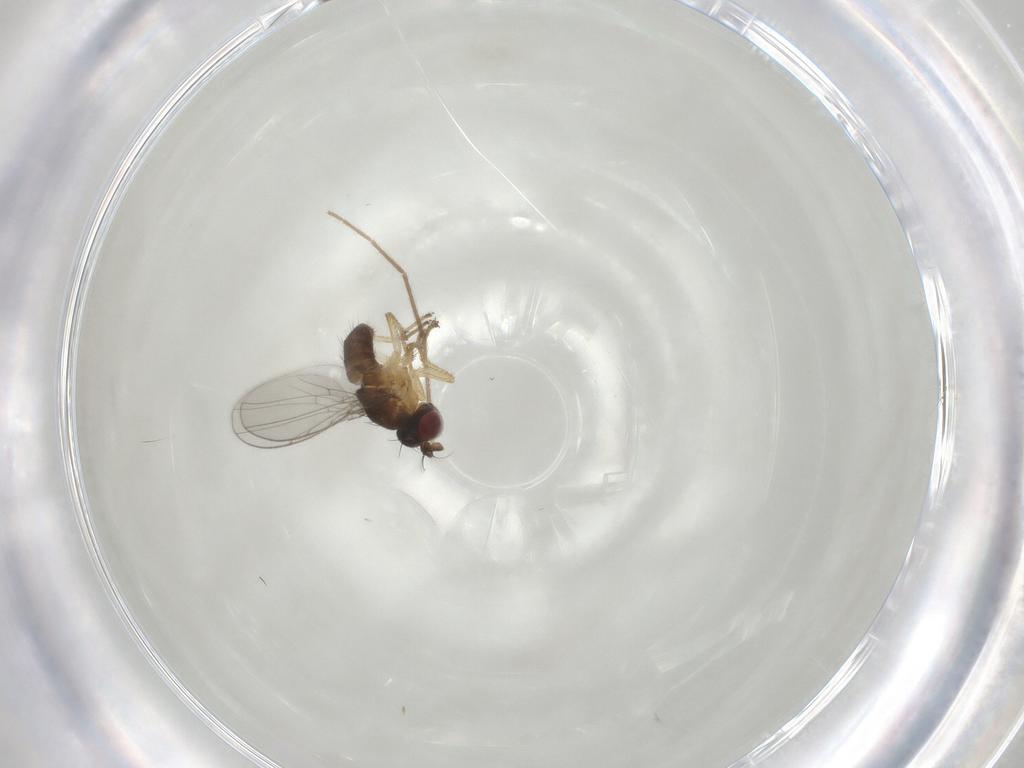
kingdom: Animalia
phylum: Arthropoda
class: Insecta
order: Diptera
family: Ephydridae
